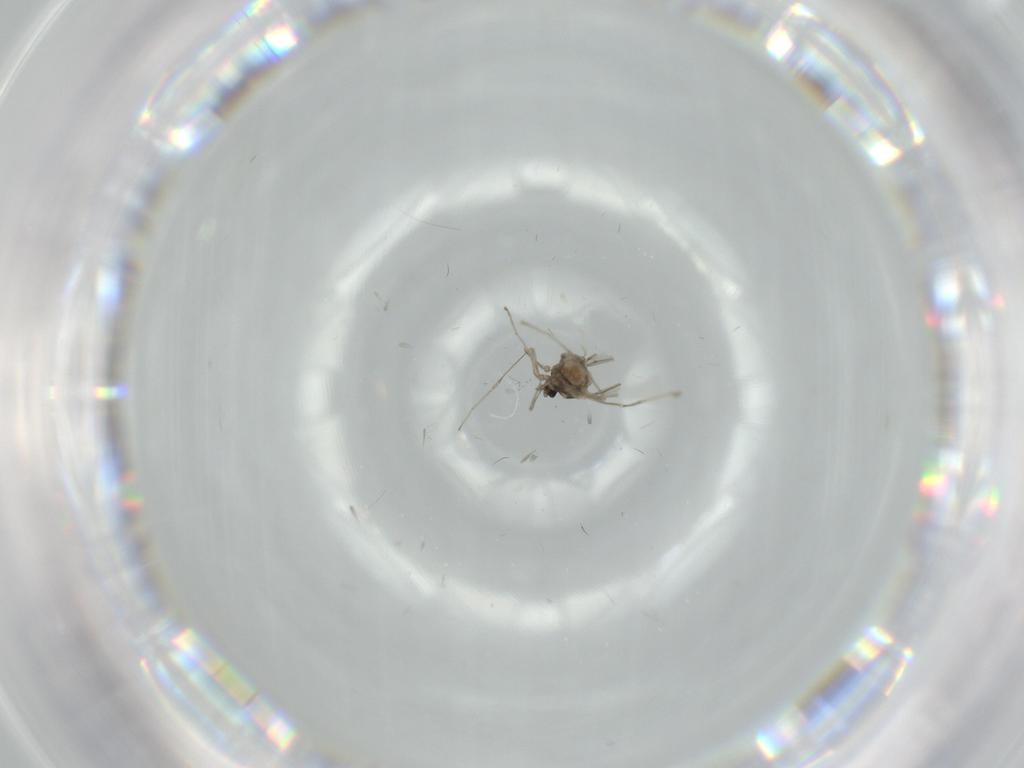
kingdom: Animalia
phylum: Arthropoda
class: Insecta
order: Diptera
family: Cecidomyiidae
